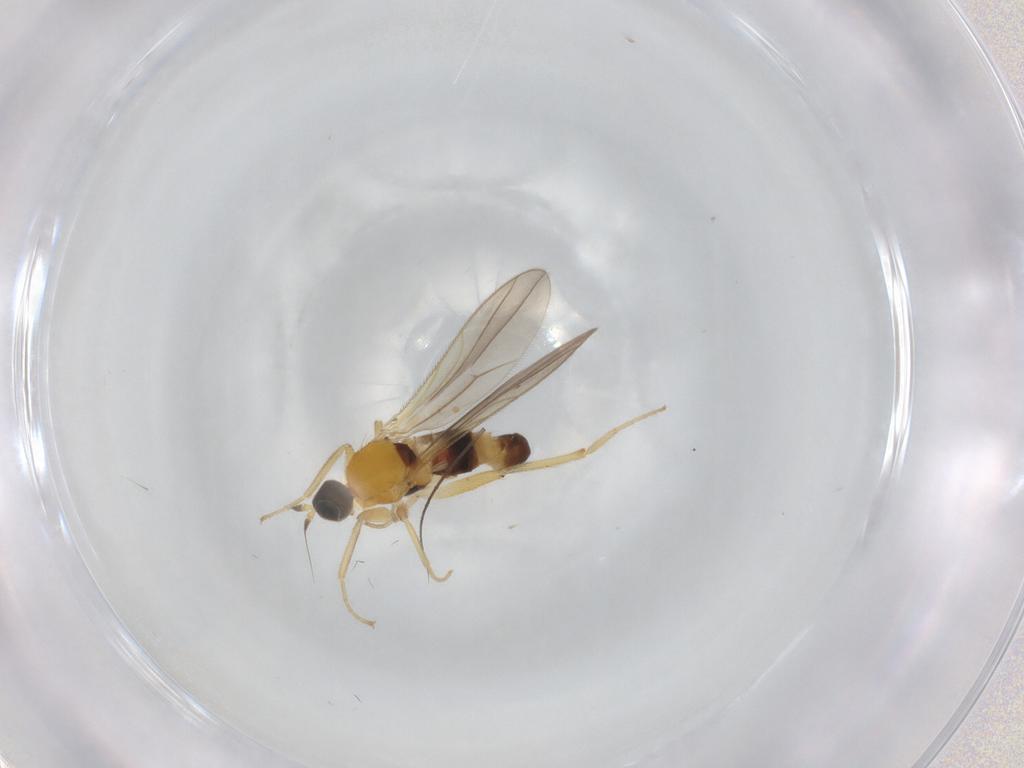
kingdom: Animalia
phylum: Arthropoda
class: Insecta
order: Diptera
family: Hybotidae
